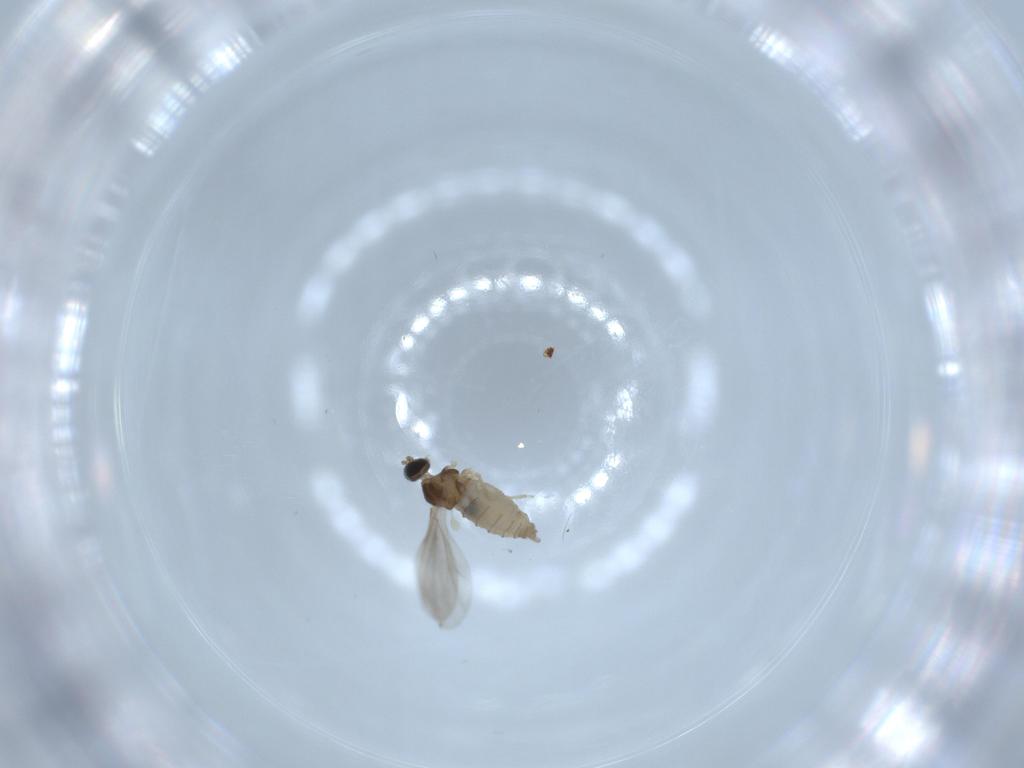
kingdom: Animalia
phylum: Arthropoda
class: Insecta
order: Diptera
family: Cecidomyiidae
